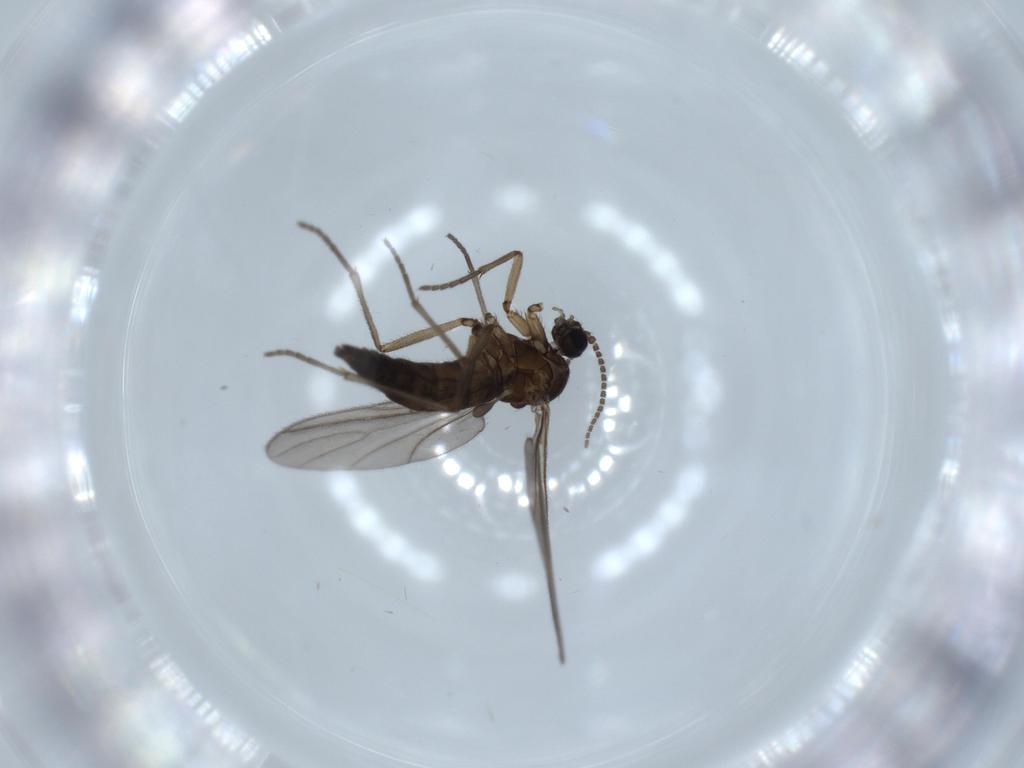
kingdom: Animalia
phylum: Arthropoda
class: Insecta
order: Diptera
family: Sciaridae
